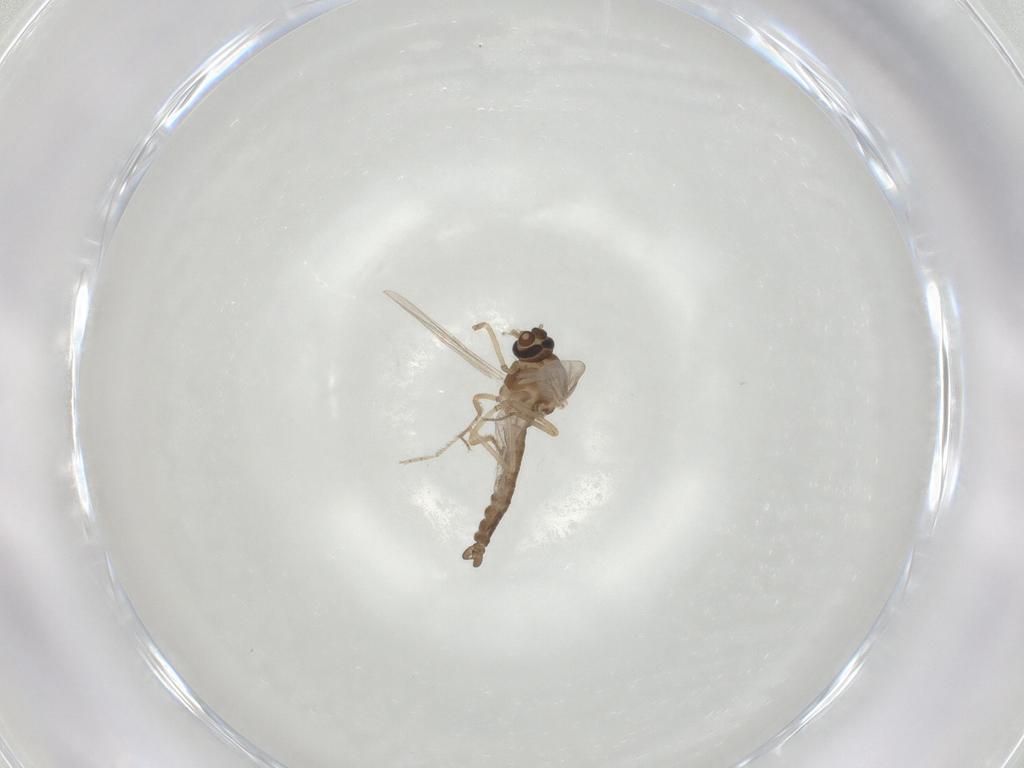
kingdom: Animalia
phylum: Arthropoda
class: Insecta
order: Diptera
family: Ceratopogonidae
